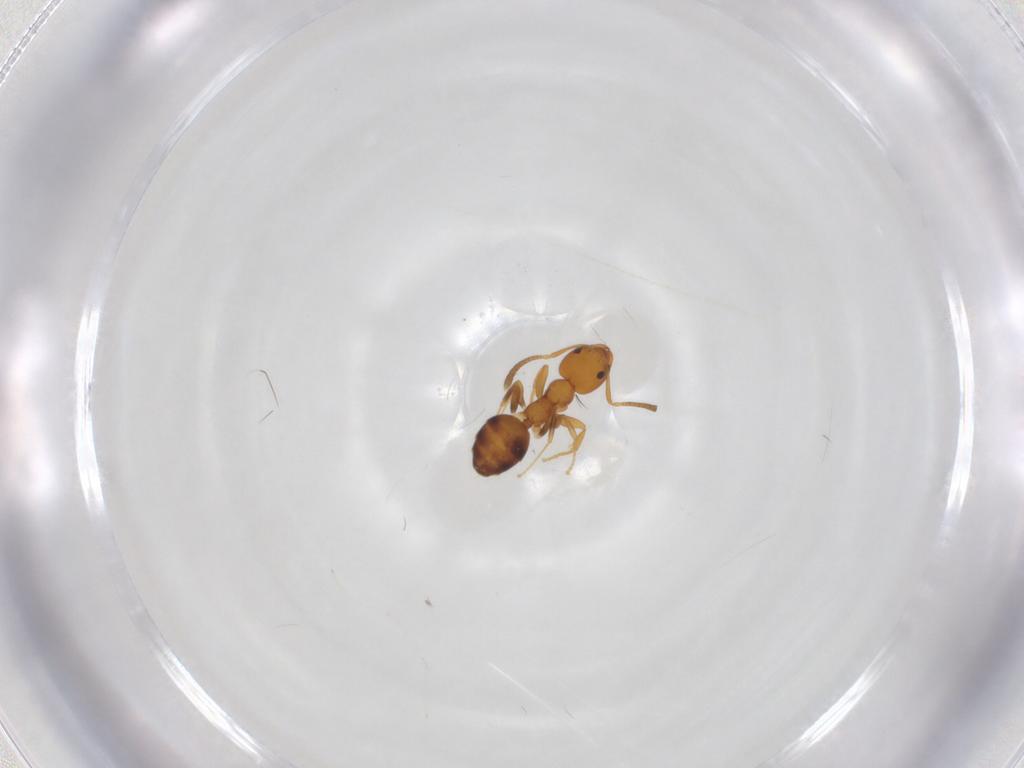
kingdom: Animalia
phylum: Arthropoda
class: Insecta
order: Hymenoptera
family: Formicidae
